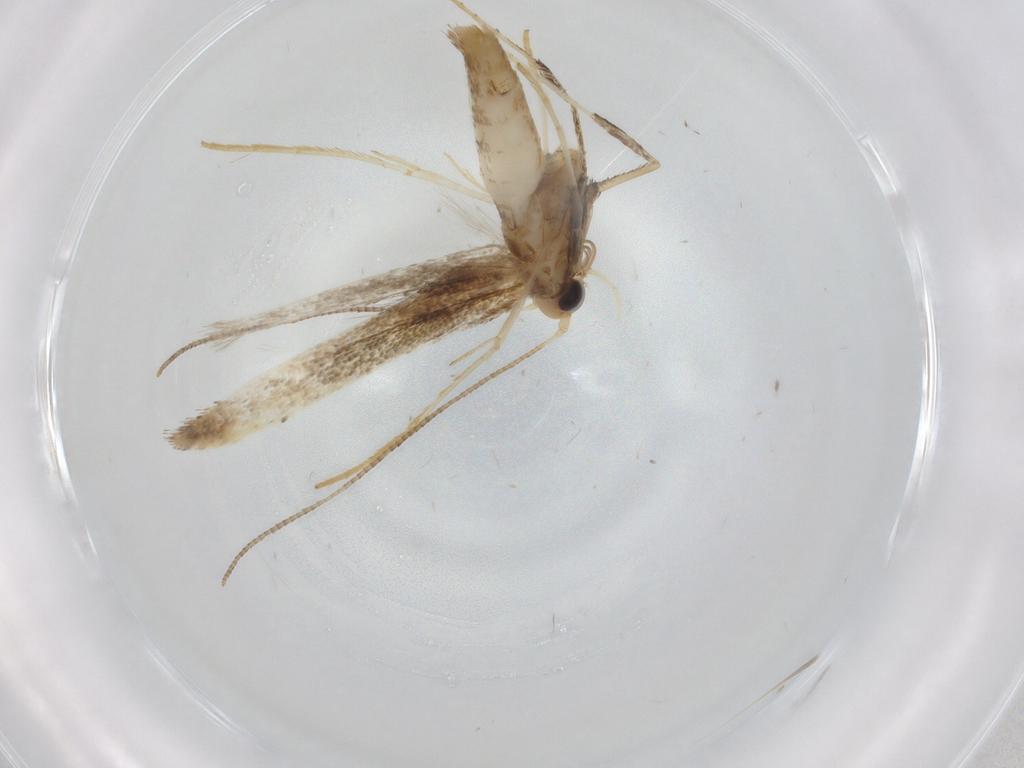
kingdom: Animalia
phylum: Arthropoda
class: Insecta
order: Lepidoptera
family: Gracillariidae
